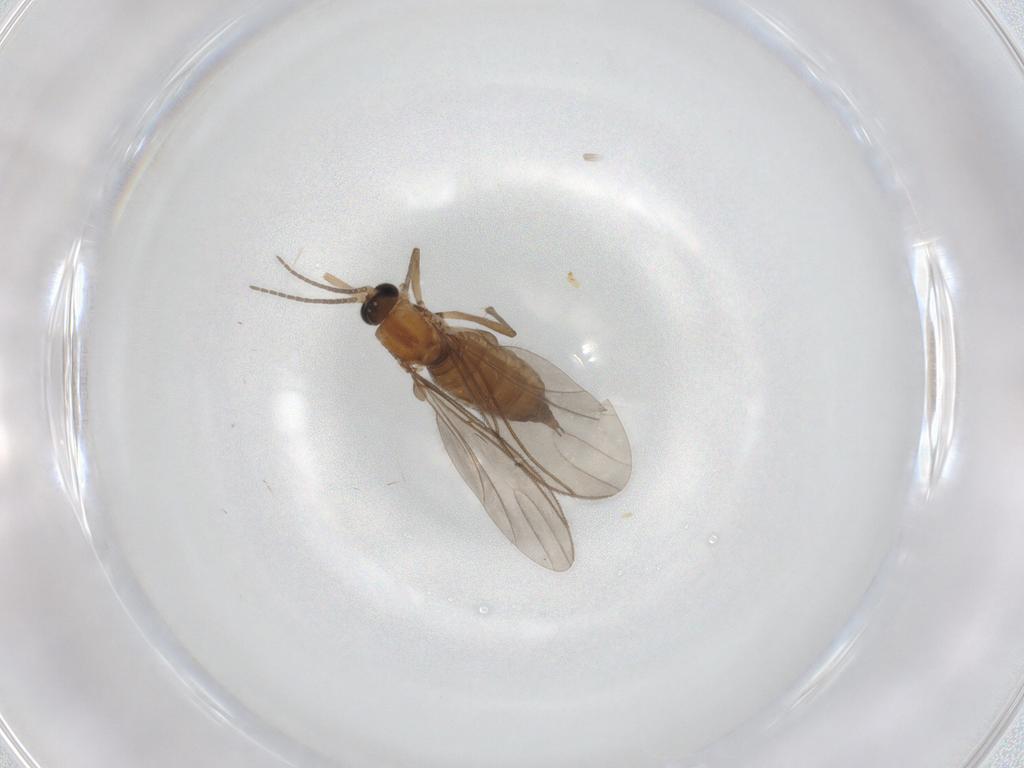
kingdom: Animalia
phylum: Arthropoda
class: Insecta
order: Diptera
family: Sciaridae
